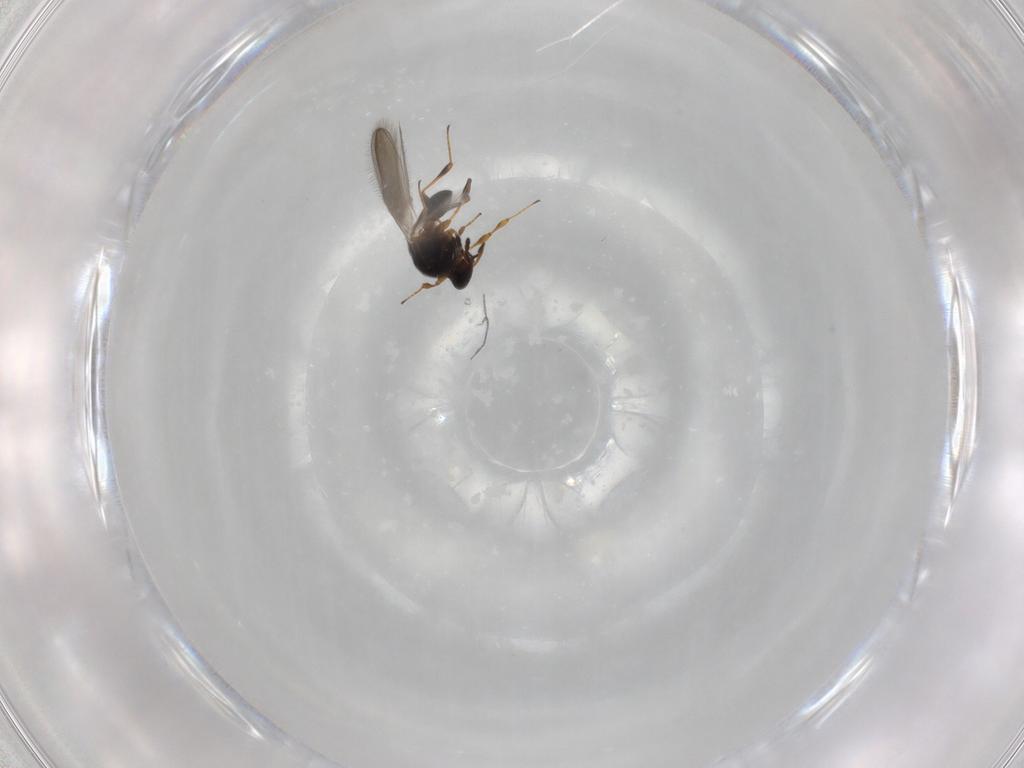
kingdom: Animalia
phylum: Arthropoda
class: Insecta
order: Hymenoptera
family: Platygastridae
